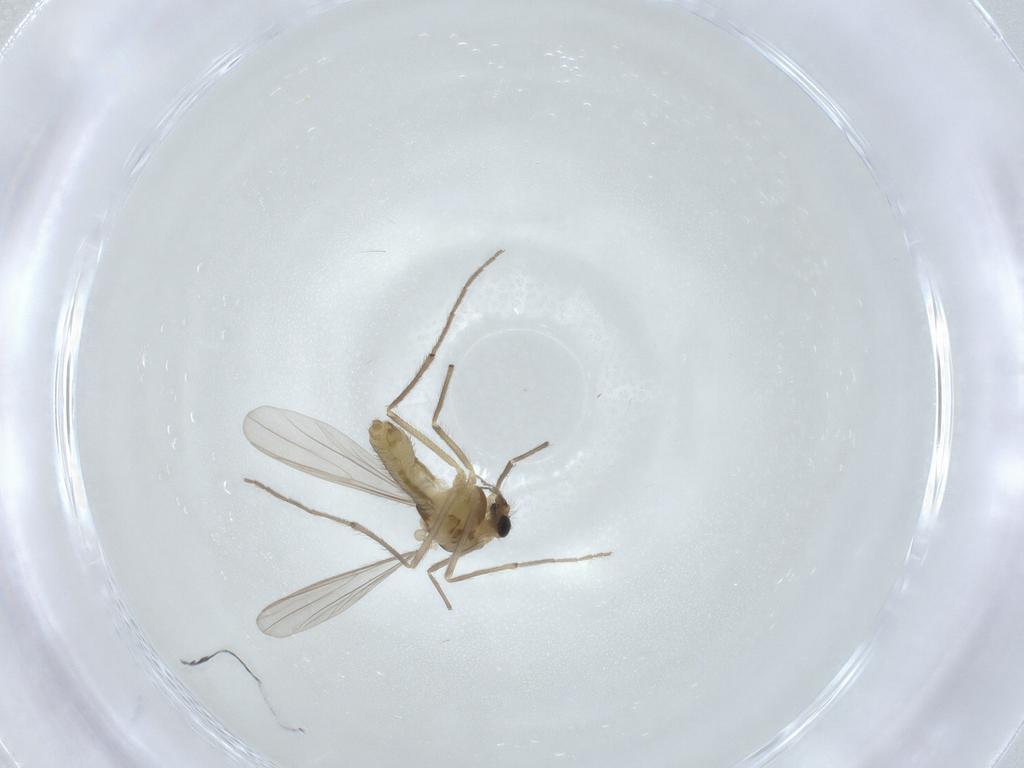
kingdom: Animalia
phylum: Arthropoda
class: Insecta
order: Diptera
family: Chironomidae
